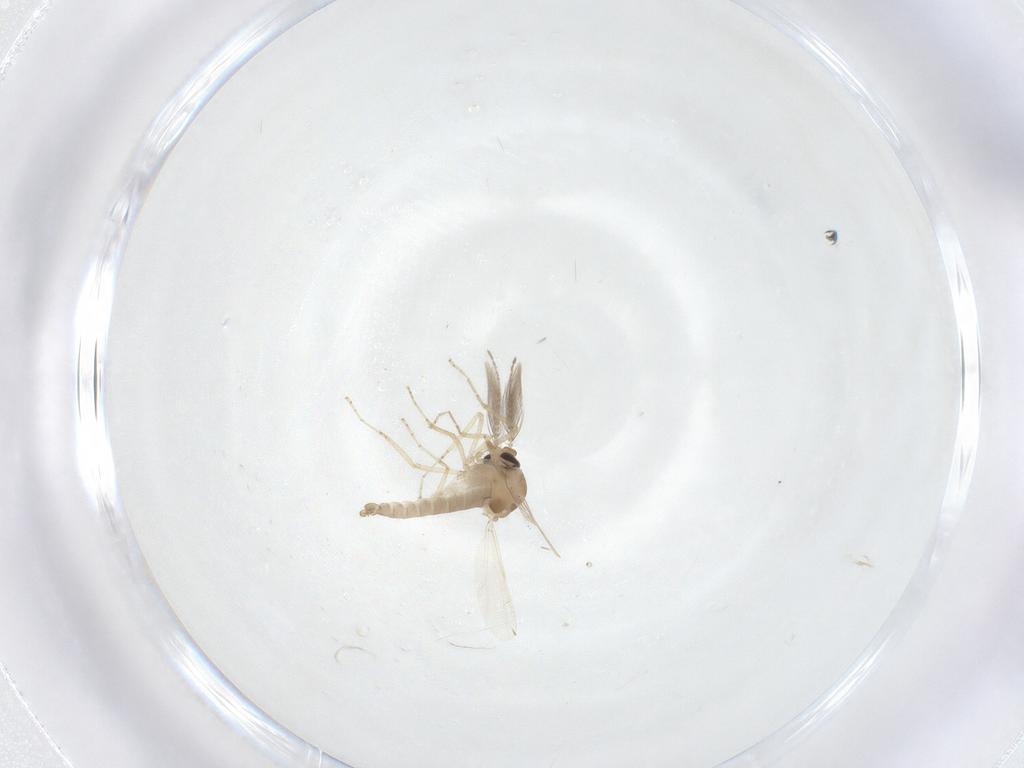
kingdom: Animalia
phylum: Arthropoda
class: Insecta
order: Diptera
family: Ceratopogonidae
